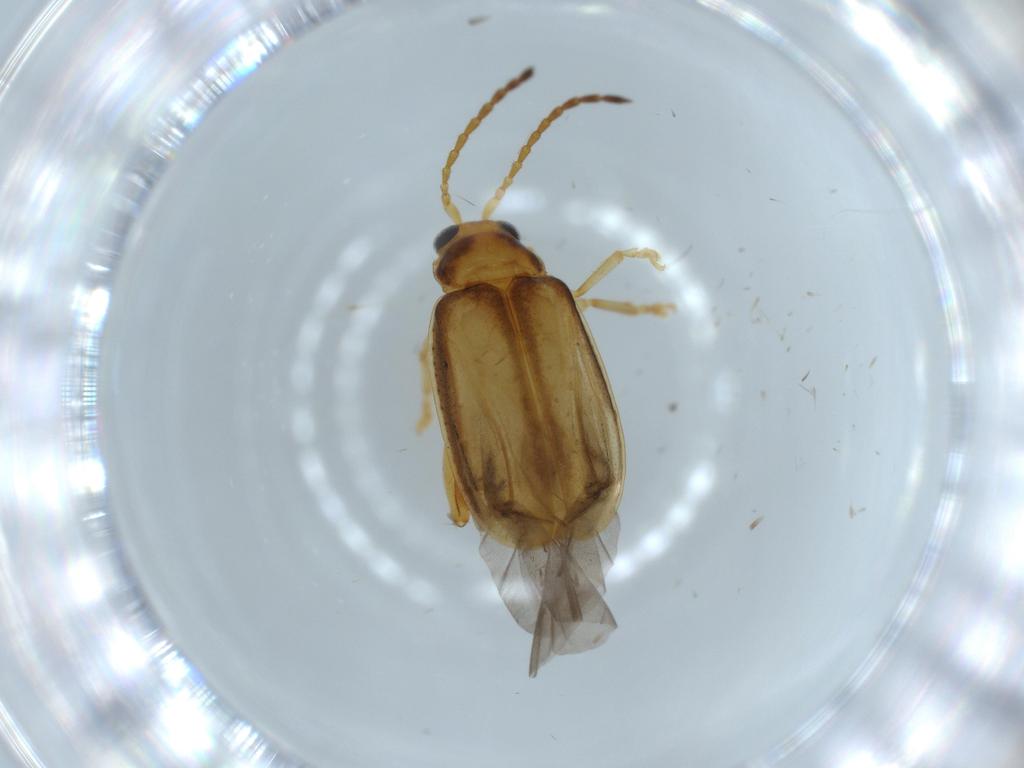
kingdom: Animalia
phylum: Arthropoda
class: Insecta
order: Coleoptera
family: Chrysomelidae
